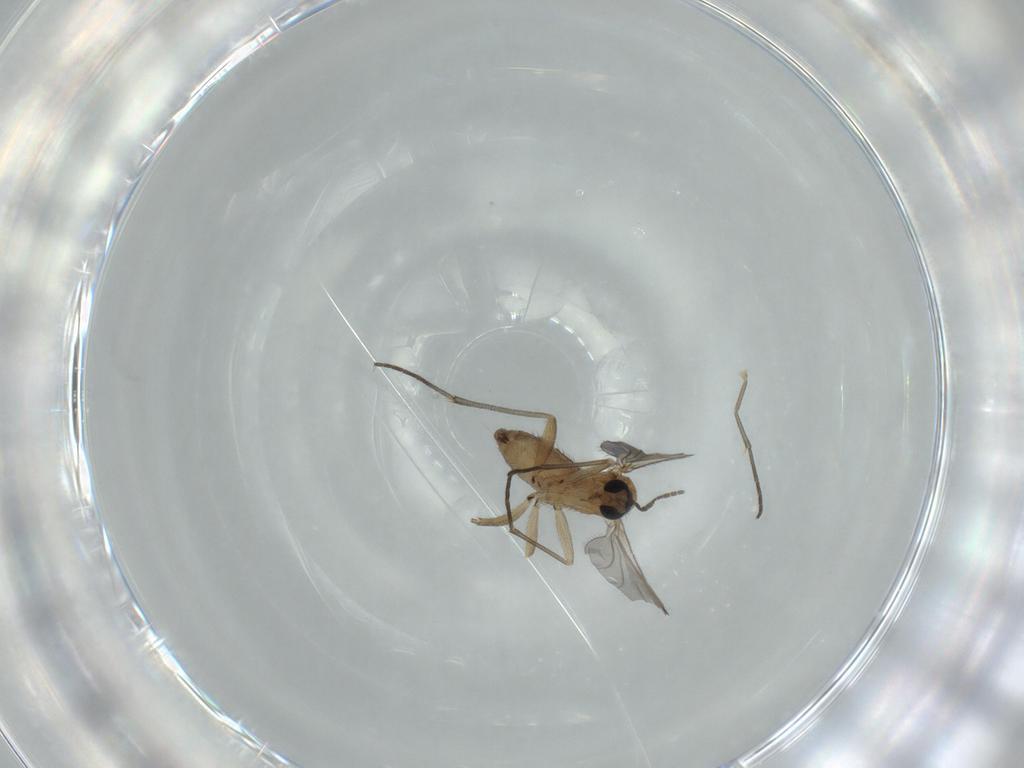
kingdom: Animalia
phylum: Arthropoda
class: Insecta
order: Diptera
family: Sciaridae
